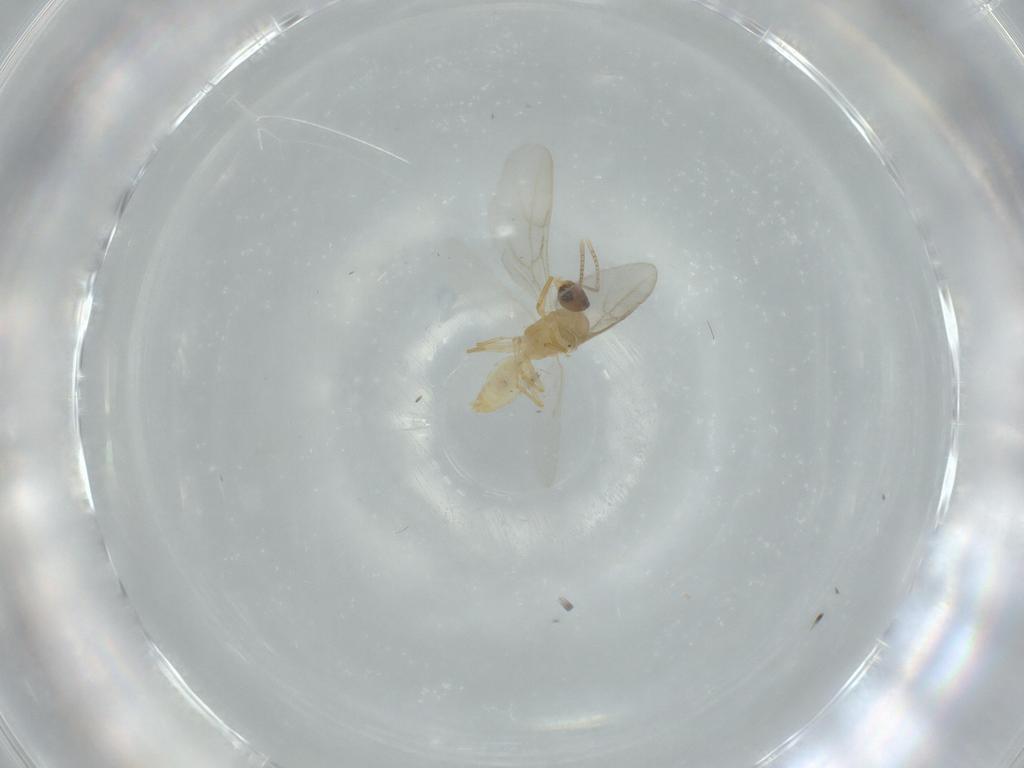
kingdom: Animalia
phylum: Arthropoda
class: Insecta
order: Hymenoptera
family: Formicidae
